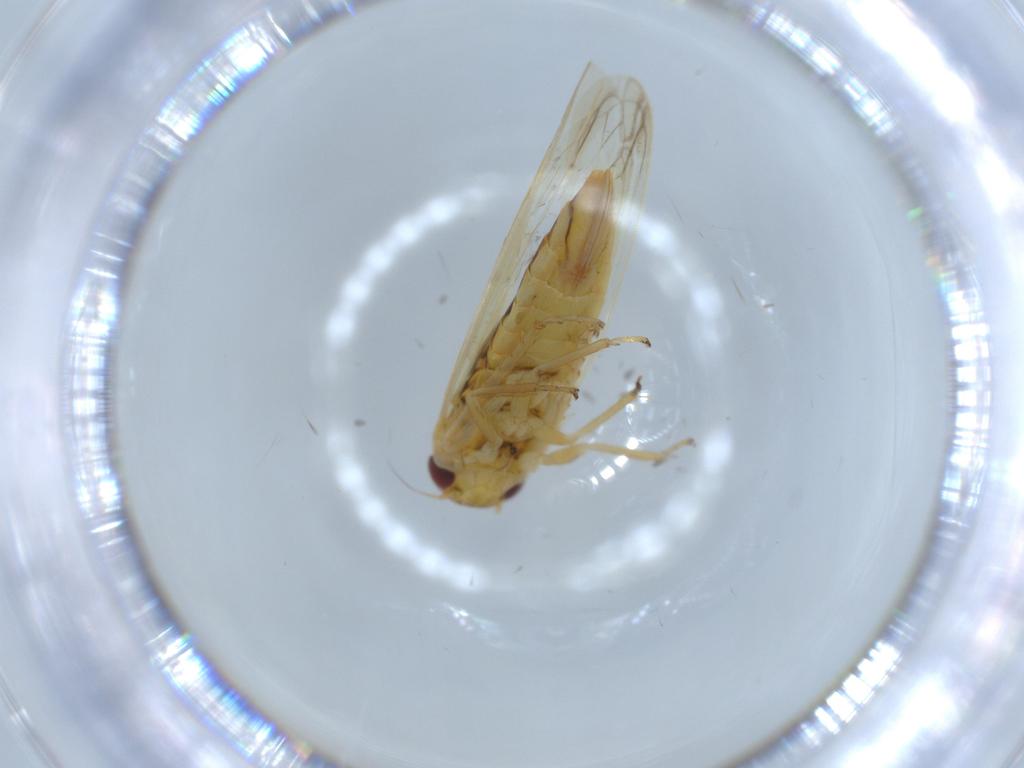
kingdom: Animalia
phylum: Arthropoda
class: Insecta
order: Hemiptera
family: Cicadellidae
